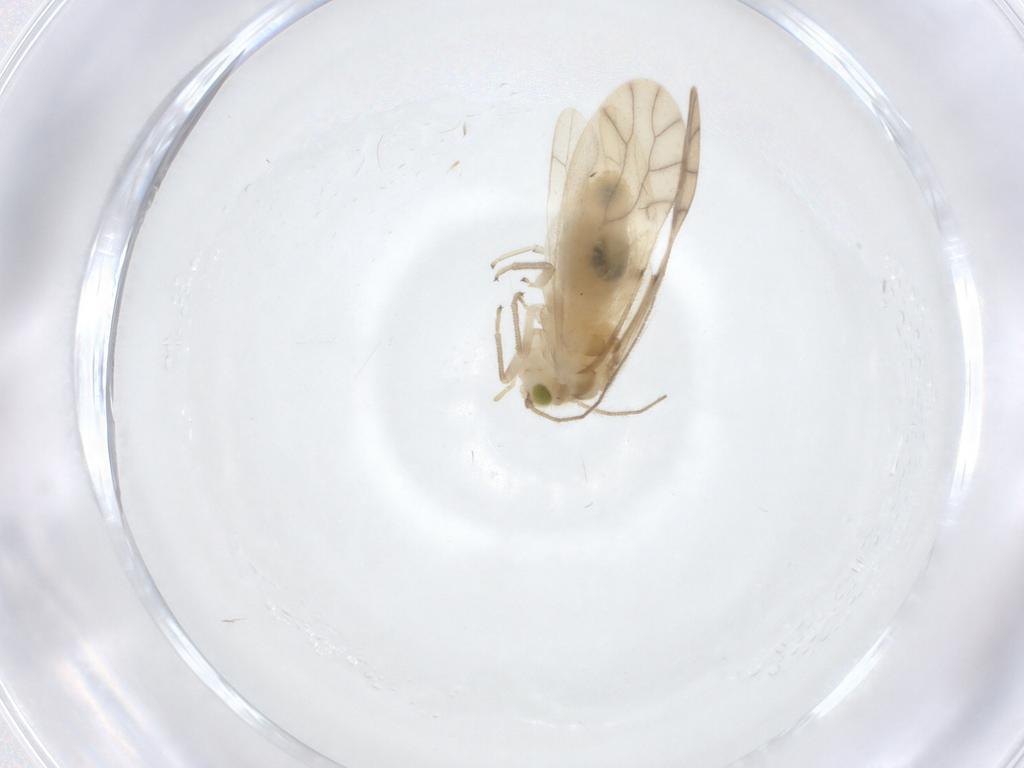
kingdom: Animalia
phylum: Arthropoda
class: Insecta
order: Psocodea
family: Caeciliusidae
